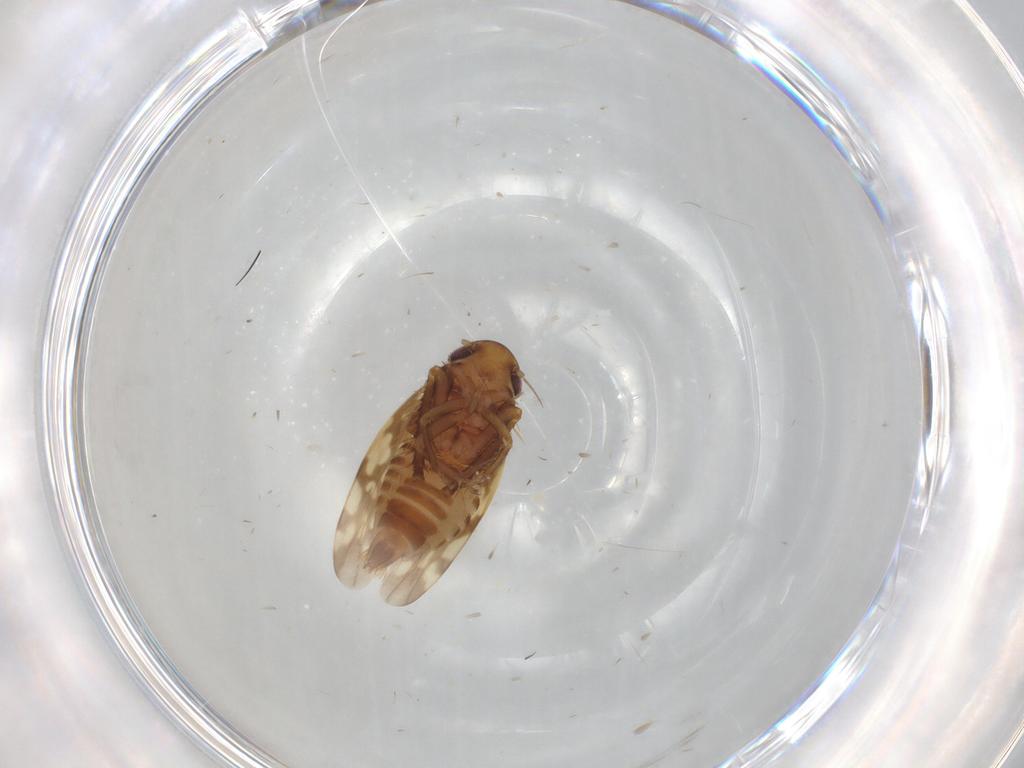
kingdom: Animalia
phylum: Arthropoda
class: Insecta
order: Hemiptera
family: Cicadellidae
